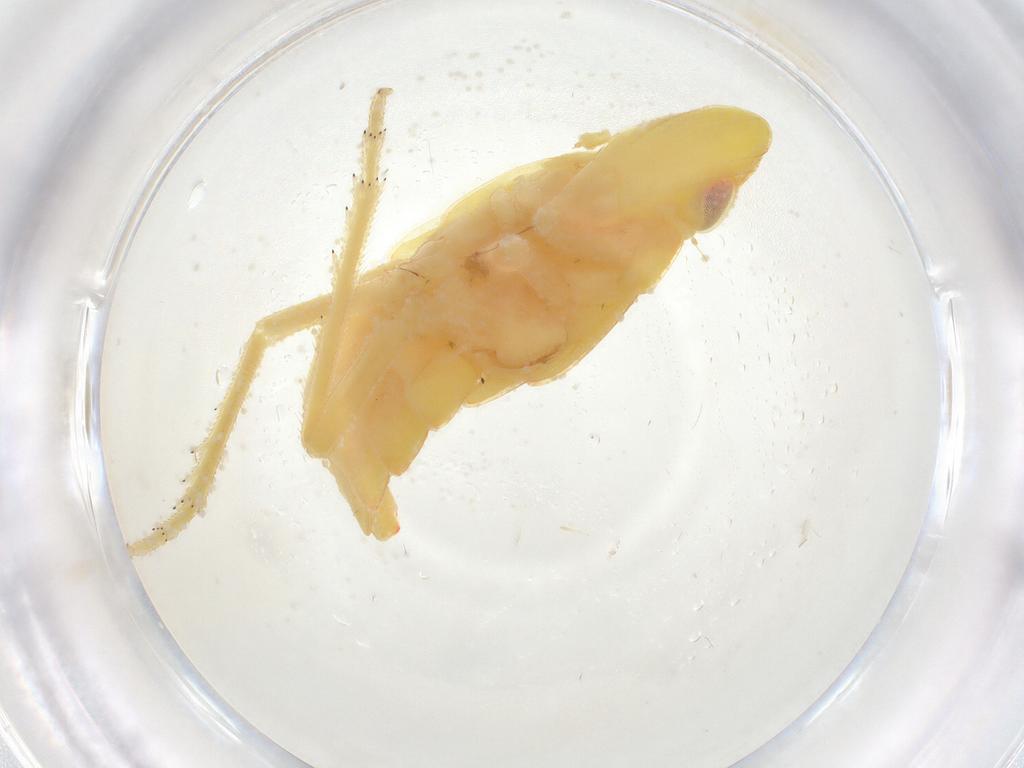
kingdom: Animalia
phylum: Arthropoda
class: Insecta
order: Hemiptera
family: Tropiduchidae
